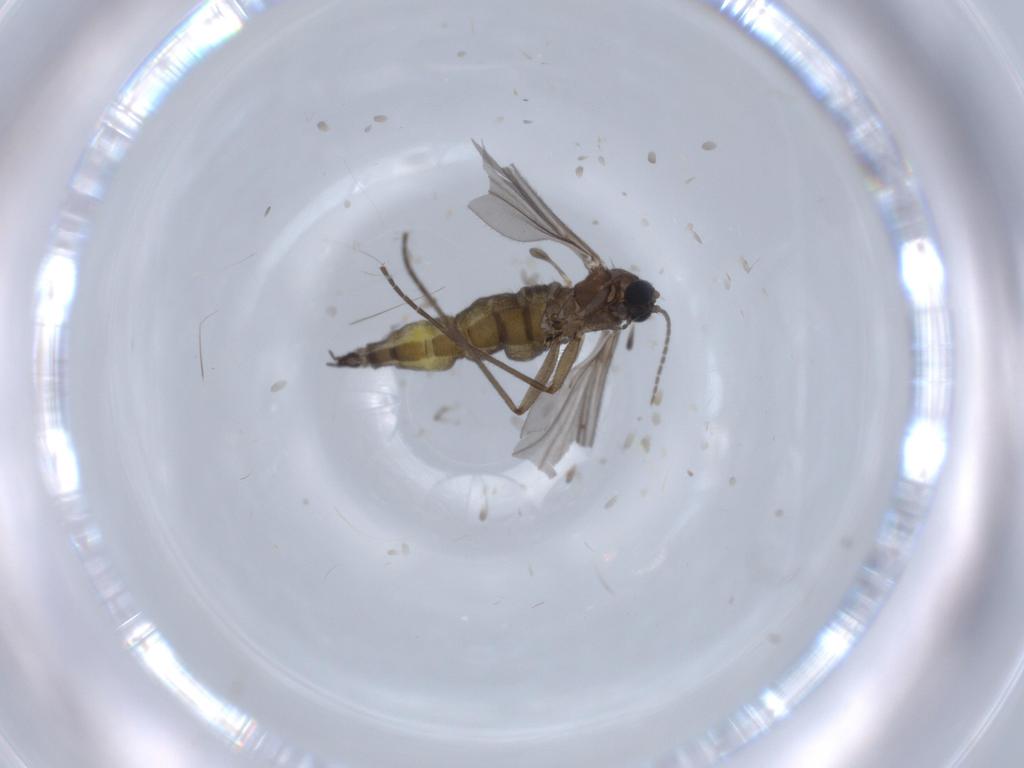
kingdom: Animalia
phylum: Arthropoda
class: Insecta
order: Diptera
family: Sciaridae
